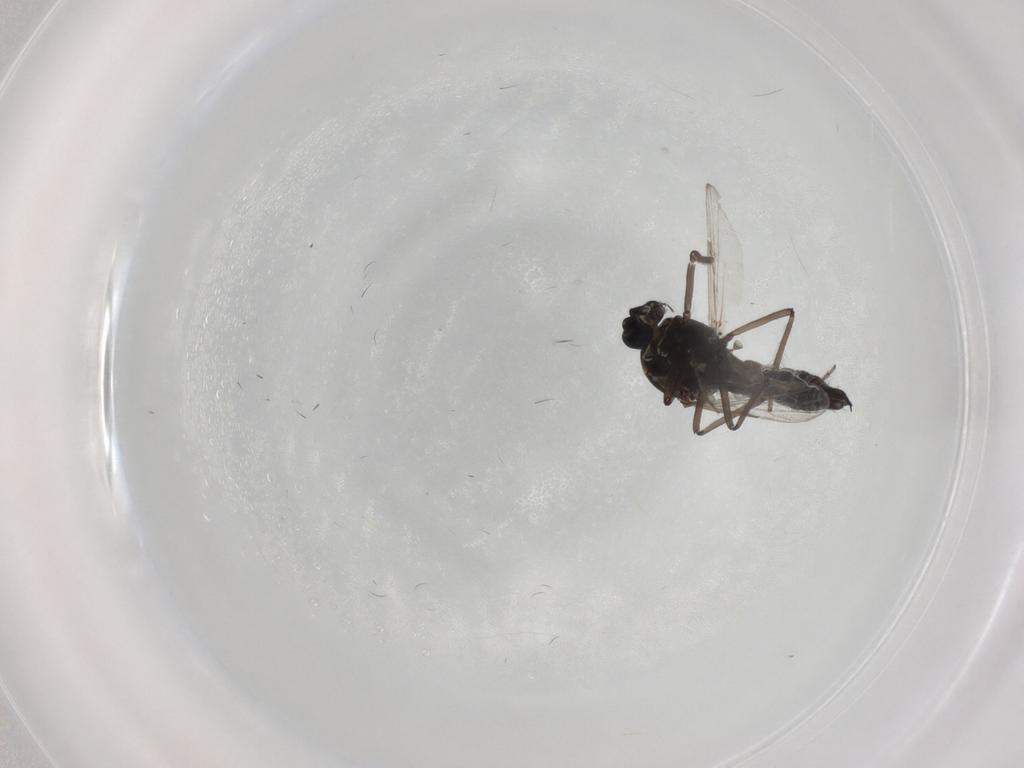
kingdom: Animalia
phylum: Arthropoda
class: Insecta
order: Diptera
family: Ceratopogonidae
